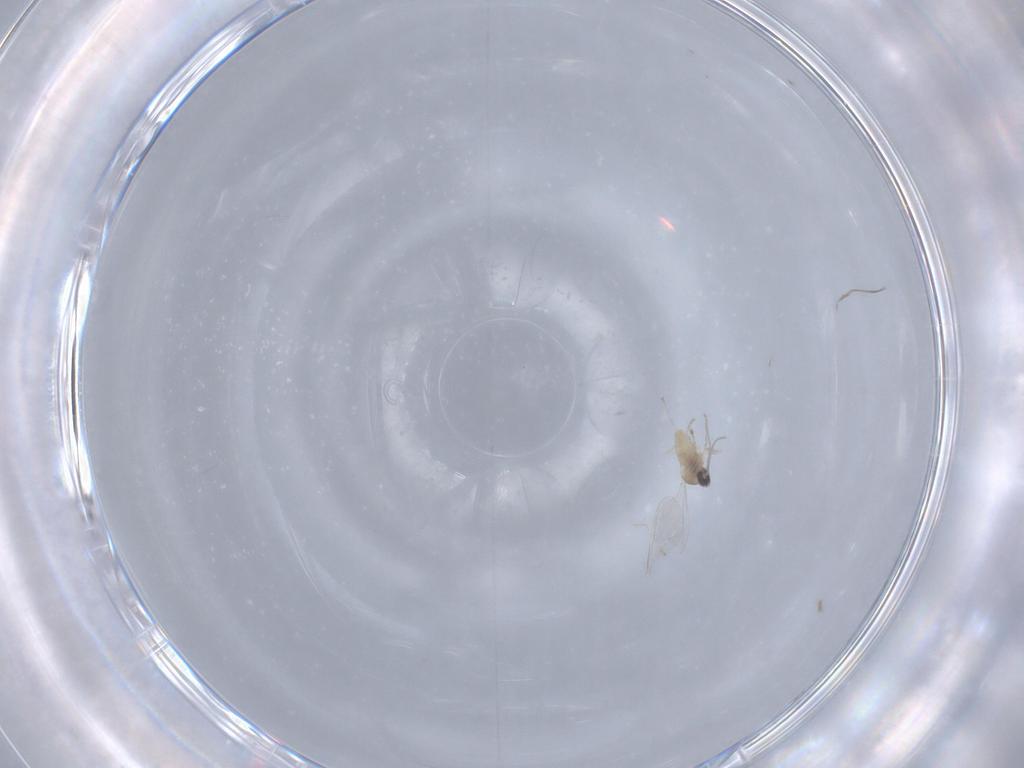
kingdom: Animalia
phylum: Arthropoda
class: Insecta
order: Diptera
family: Cecidomyiidae
